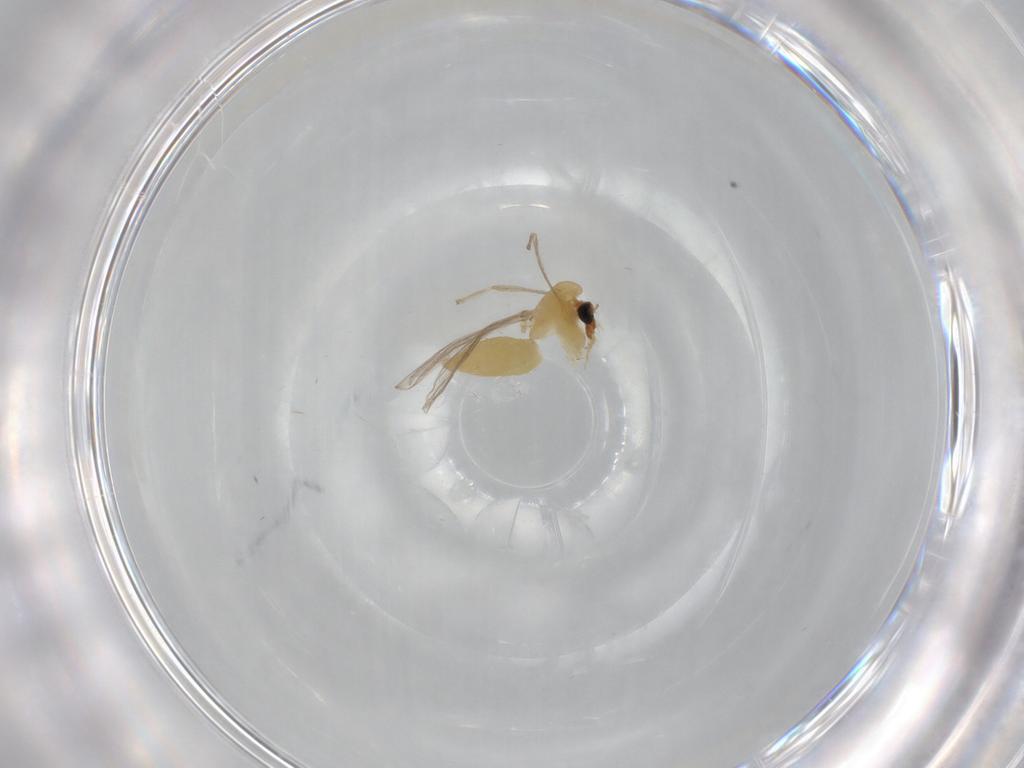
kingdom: Animalia
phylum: Arthropoda
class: Insecta
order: Diptera
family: Chironomidae
